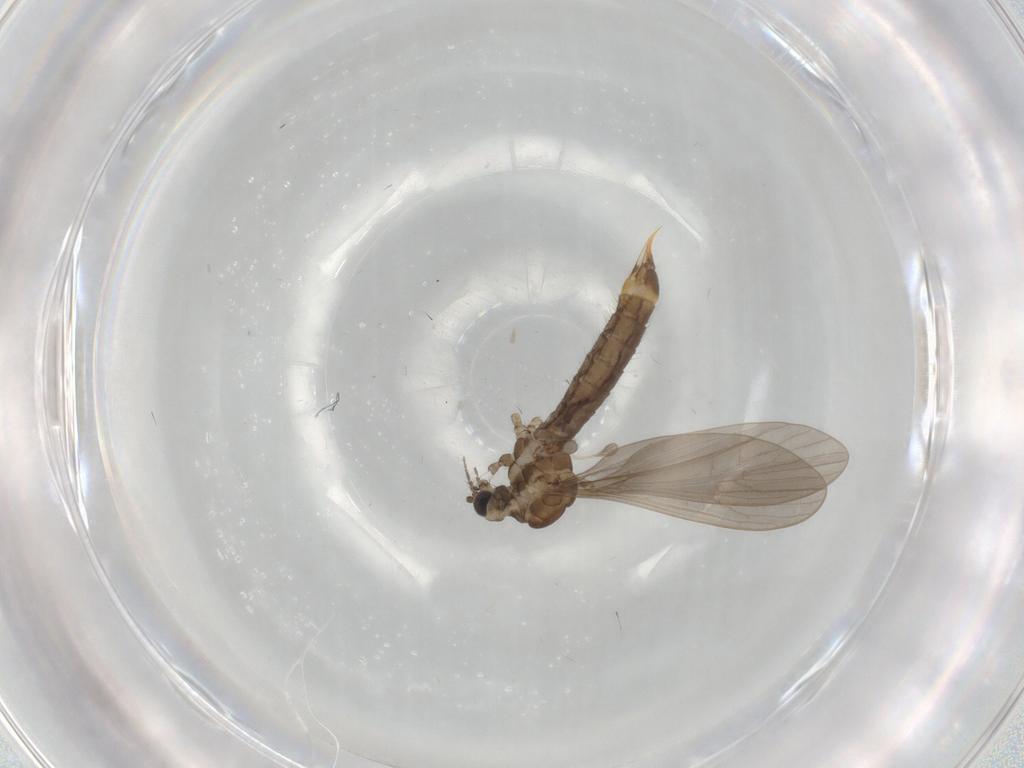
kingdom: Animalia
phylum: Arthropoda
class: Insecta
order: Diptera
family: Limoniidae
